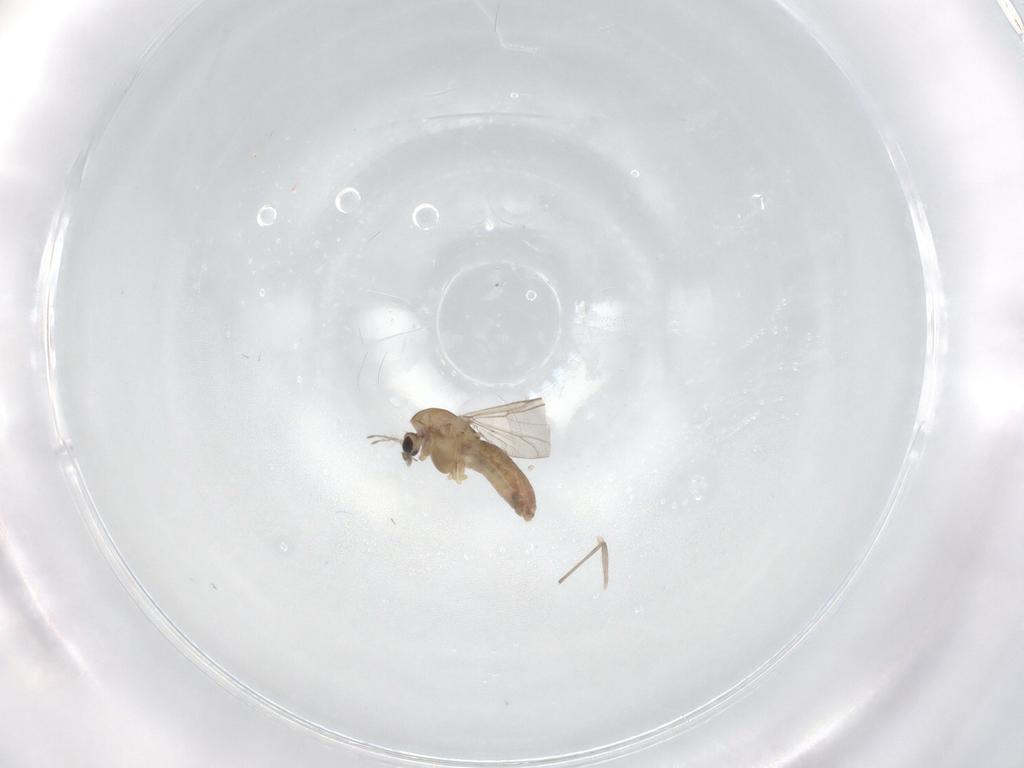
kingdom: Animalia
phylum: Arthropoda
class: Insecta
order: Diptera
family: Chironomidae
